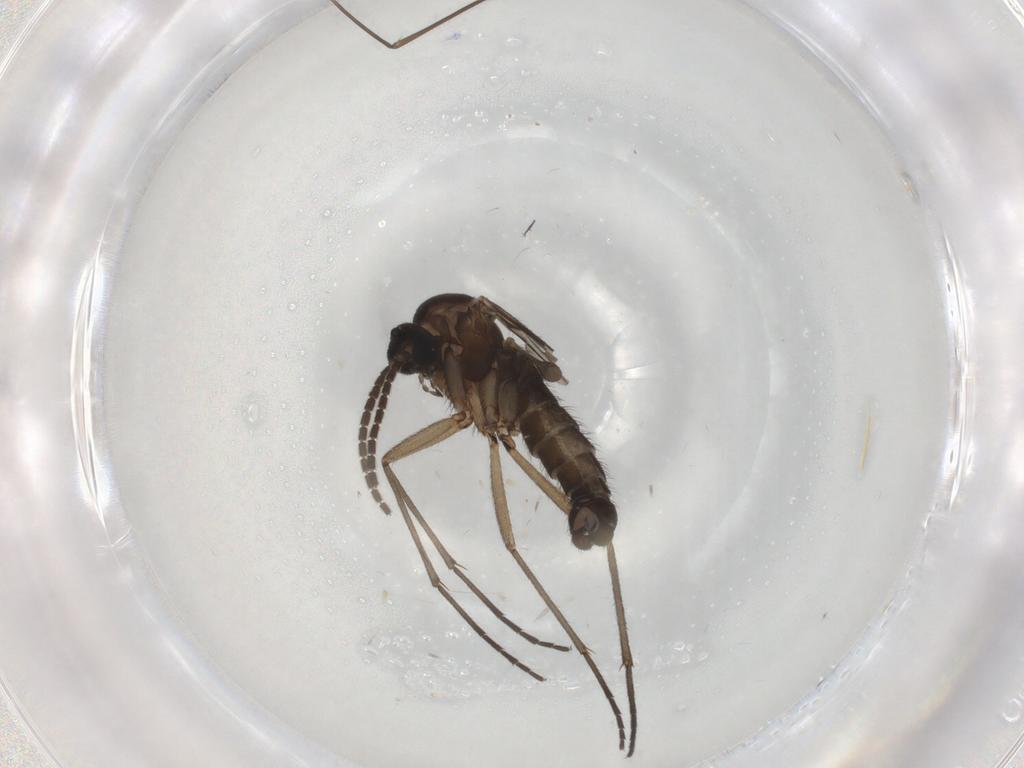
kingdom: Animalia
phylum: Arthropoda
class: Insecta
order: Diptera
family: Sciaridae
